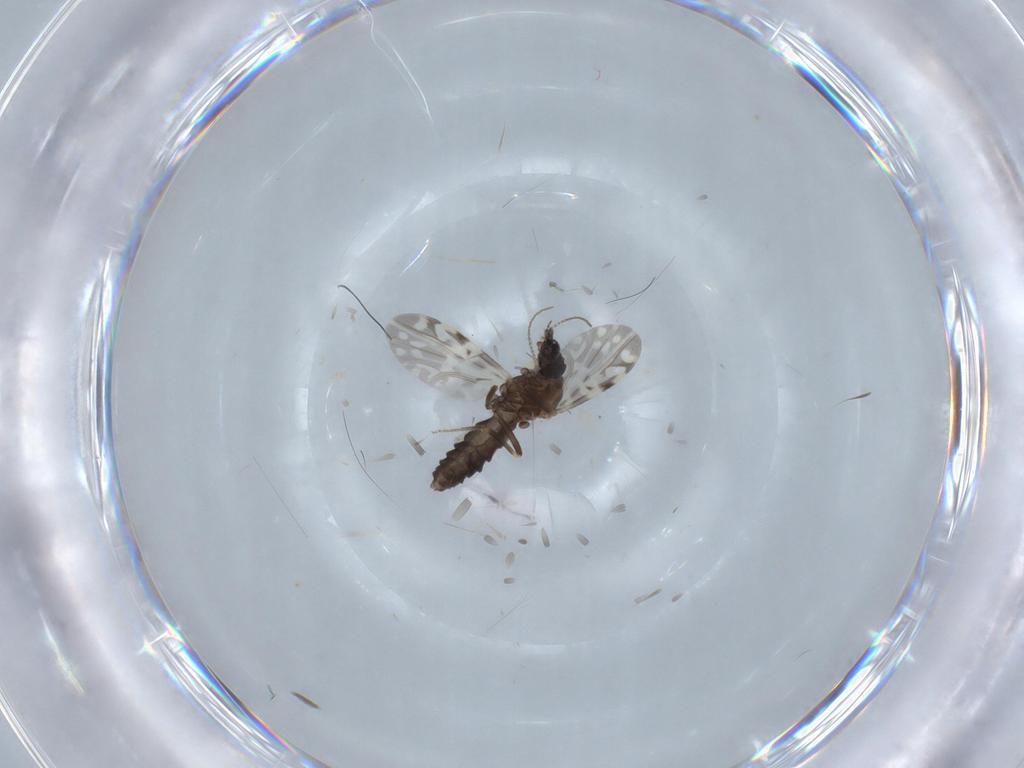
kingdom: Animalia
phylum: Arthropoda
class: Insecta
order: Diptera
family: Ceratopogonidae
